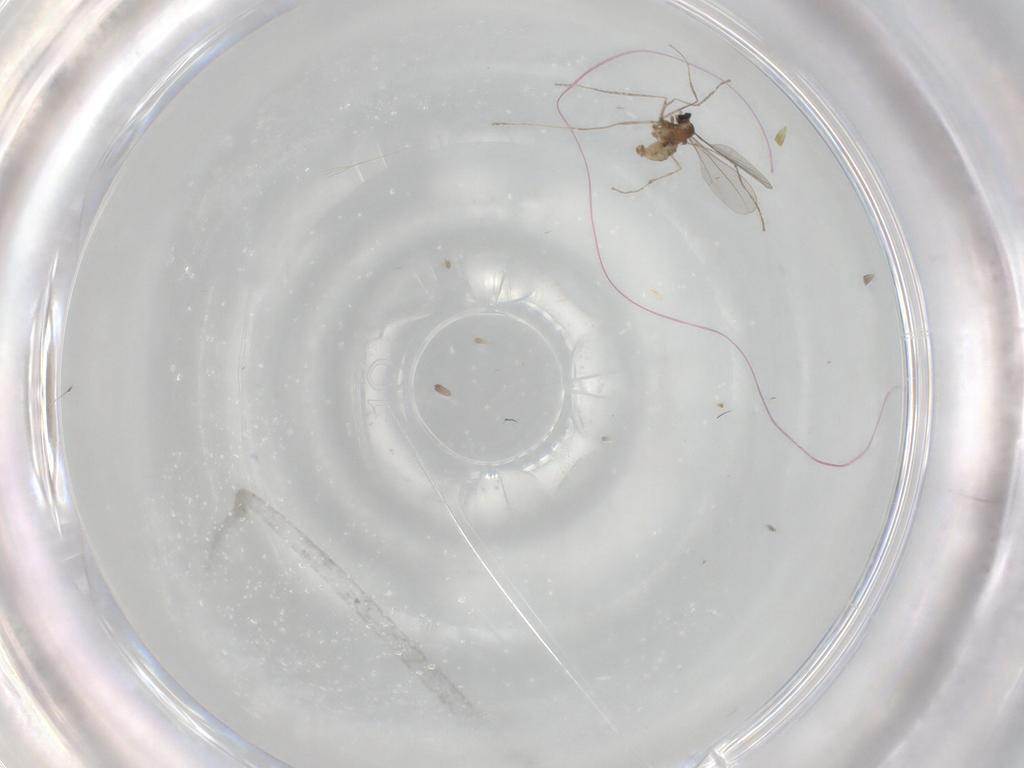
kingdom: Animalia
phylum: Arthropoda
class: Insecta
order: Diptera
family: Cecidomyiidae
